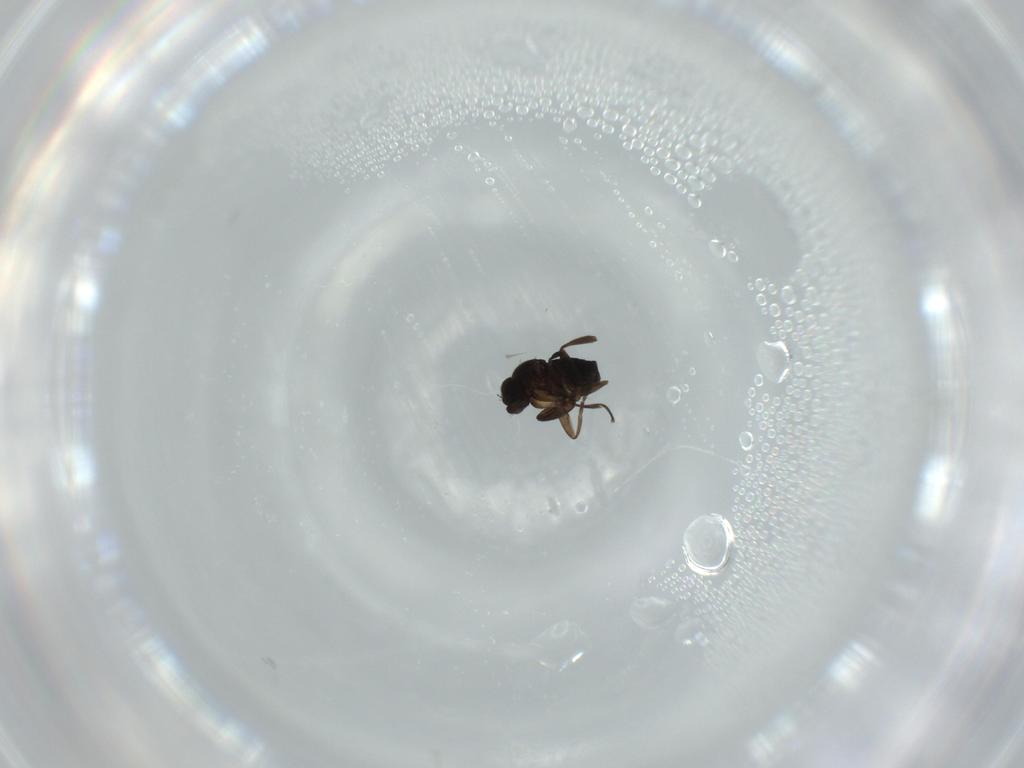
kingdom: Animalia
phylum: Arthropoda
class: Insecta
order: Diptera
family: Phoridae
